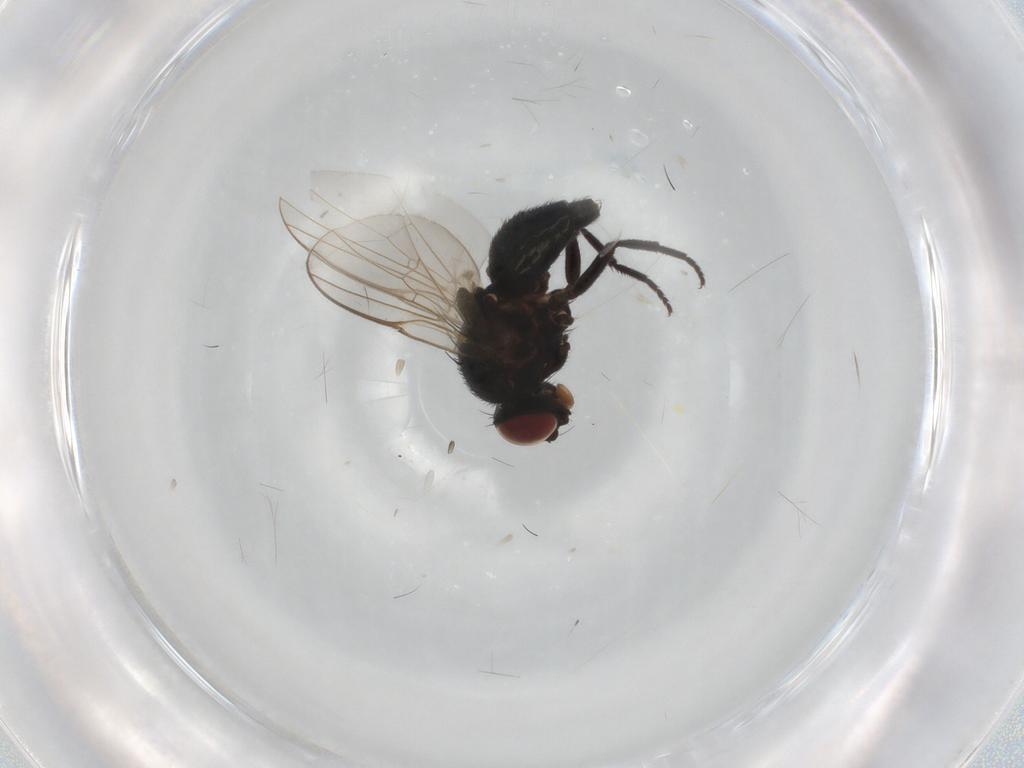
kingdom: Animalia
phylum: Arthropoda
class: Insecta
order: Diptera
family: Agromyzidae
